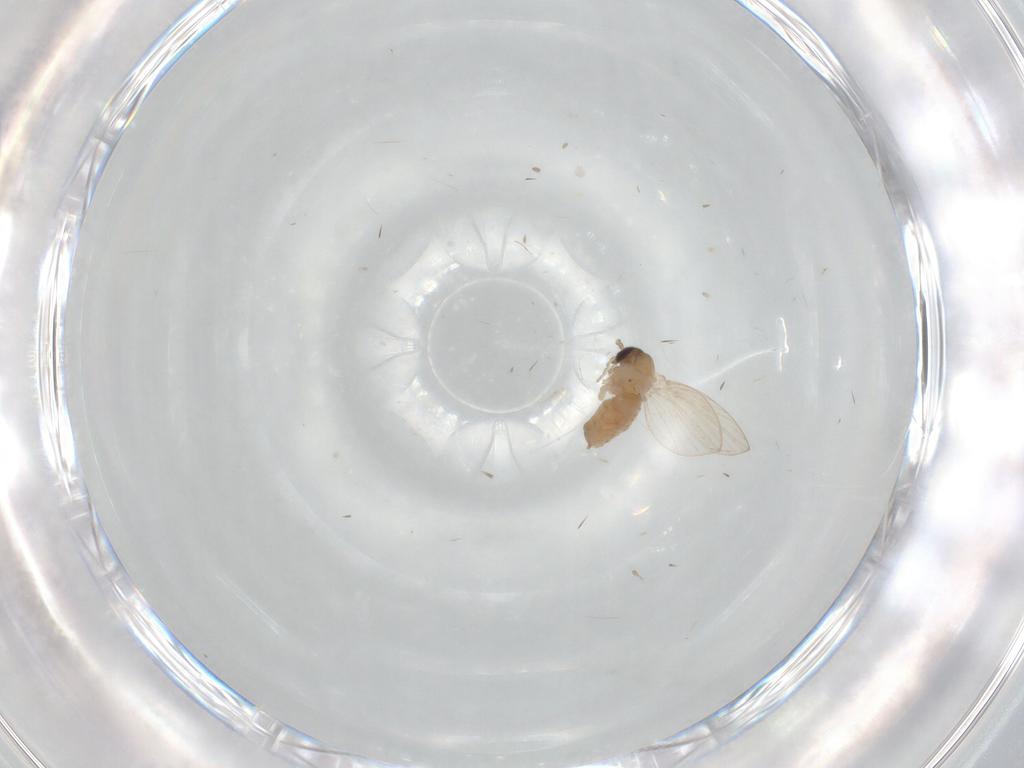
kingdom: Animalia
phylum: Arthropoda
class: Insecta
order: Diptera
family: Psychodidae
